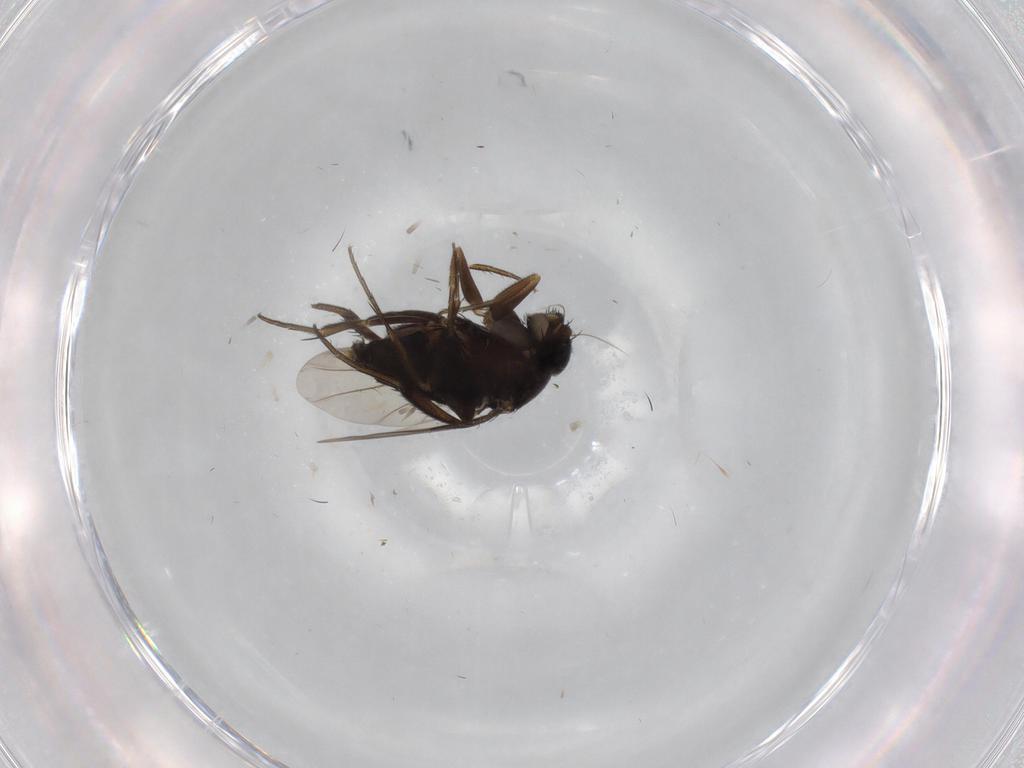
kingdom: Animalia
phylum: Arthropoda
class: Insecta
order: Diptera
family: Phoridae
